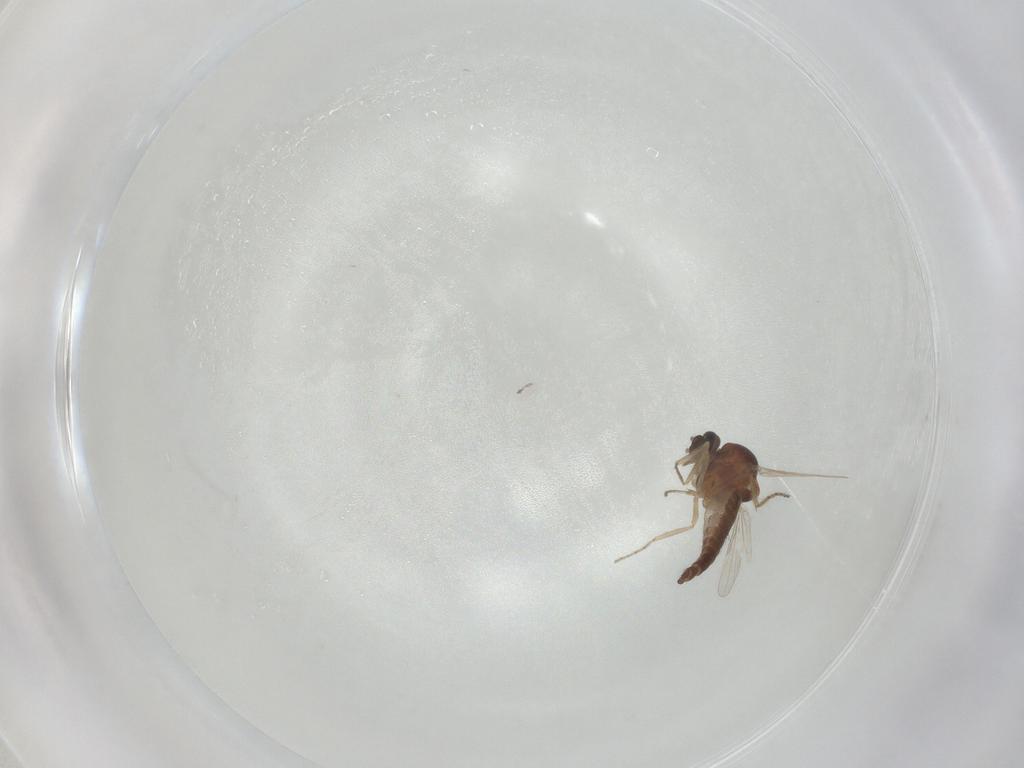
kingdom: Animalia
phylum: Arthropoda
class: Insecta
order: Diptera
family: Ceratopogonidae
